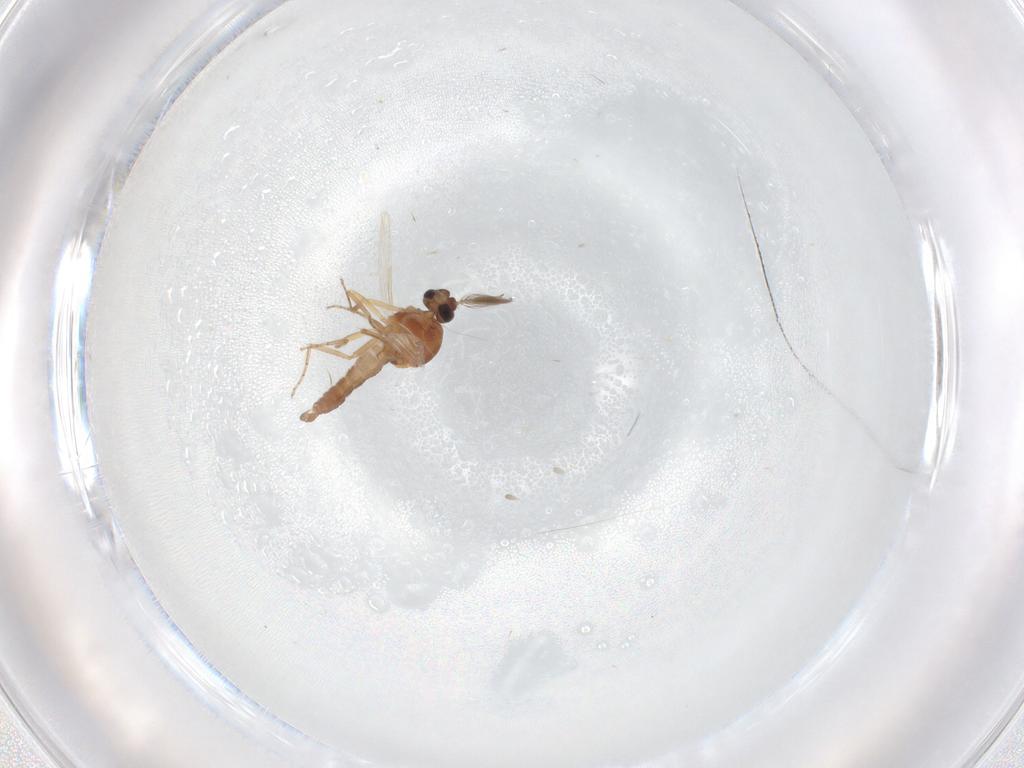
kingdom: Animalia
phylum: Arthropoda
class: Insecta
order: Diptera
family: Ceratopogonidae
